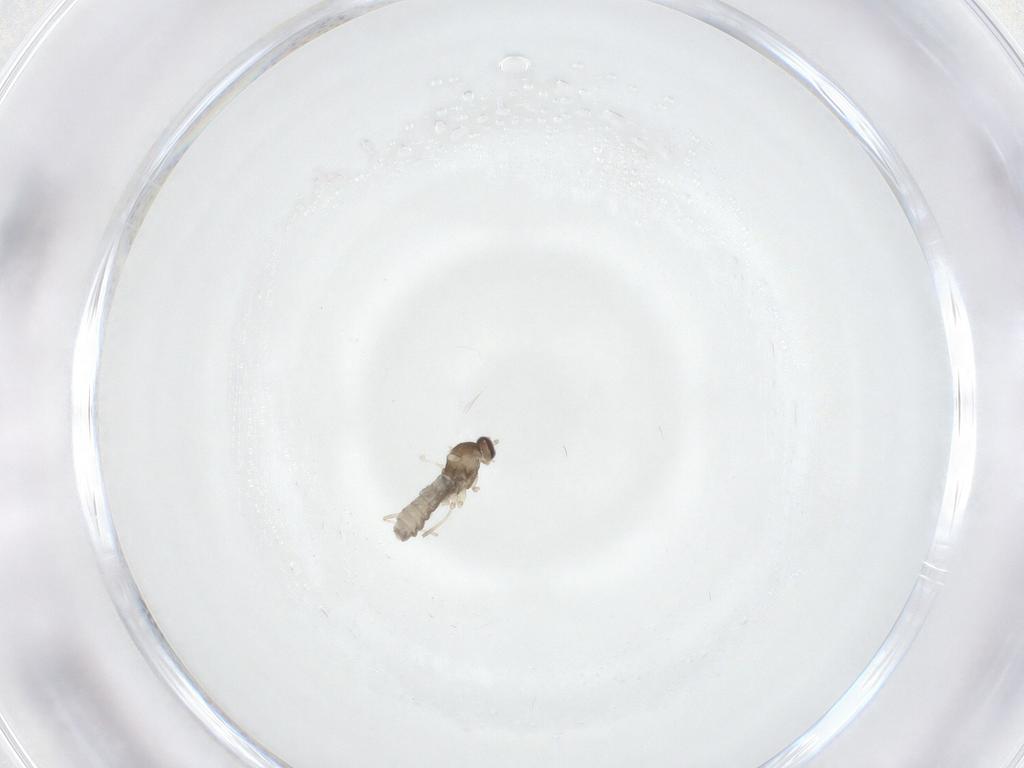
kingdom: Animalia
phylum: Arthropoda
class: Insecta
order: Diptera
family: Cecidomyiidae
